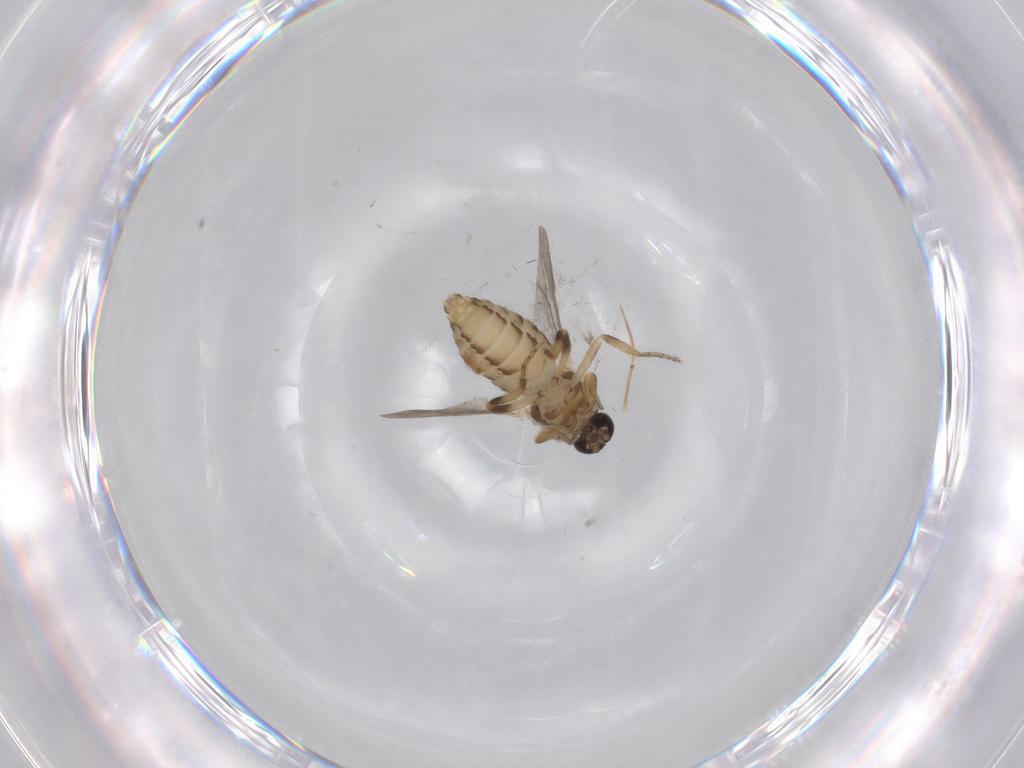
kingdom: Animalia
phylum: Arthropoda
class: Insecta
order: Diptera
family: Ceratopogonidae
